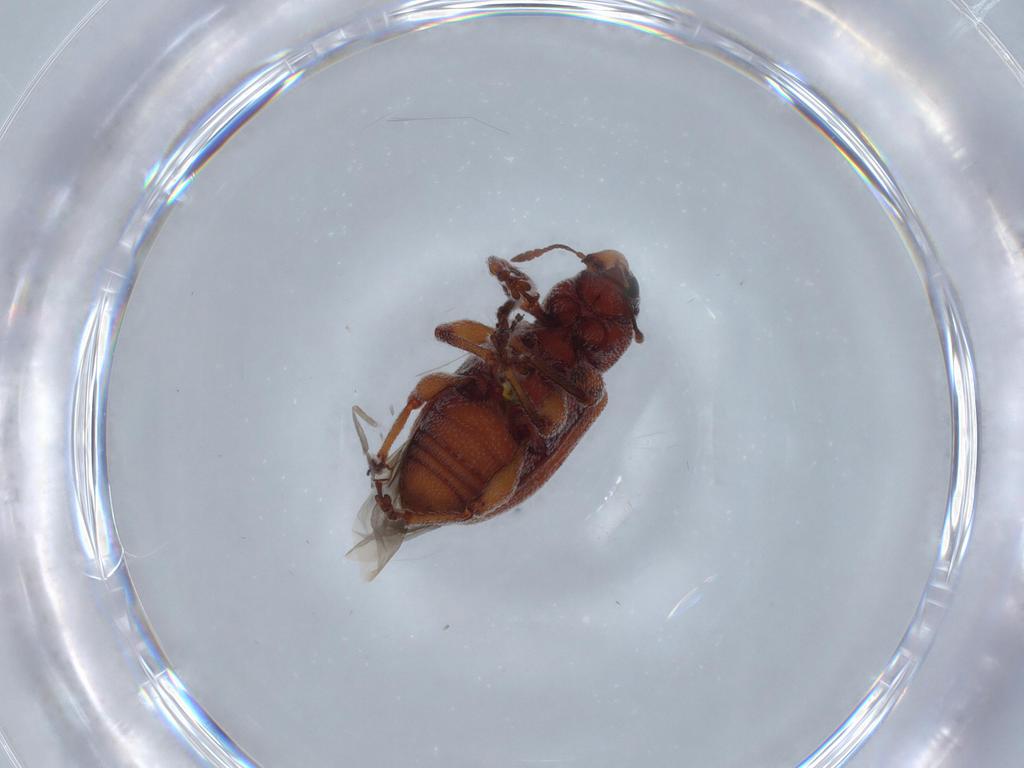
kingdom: Animalia
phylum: Arthropoda
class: Insecta
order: Coleoptera
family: Curculionidae
